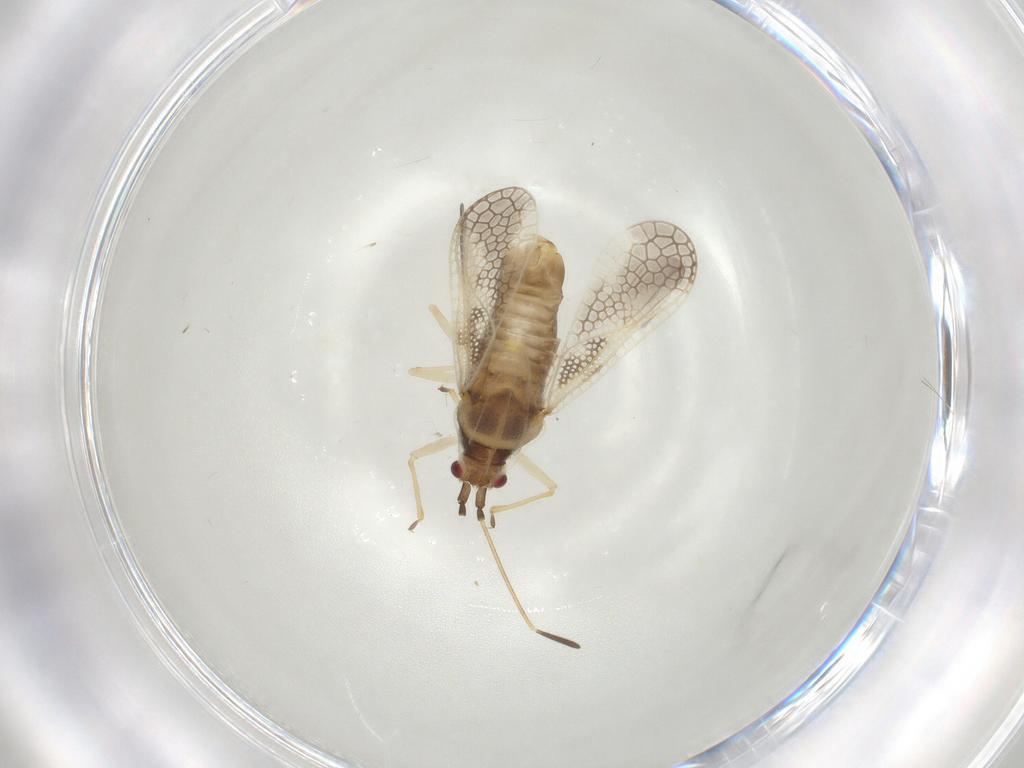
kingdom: Animalia
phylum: Arthropoda
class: Insecta
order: Hemiptera
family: Tingidae
